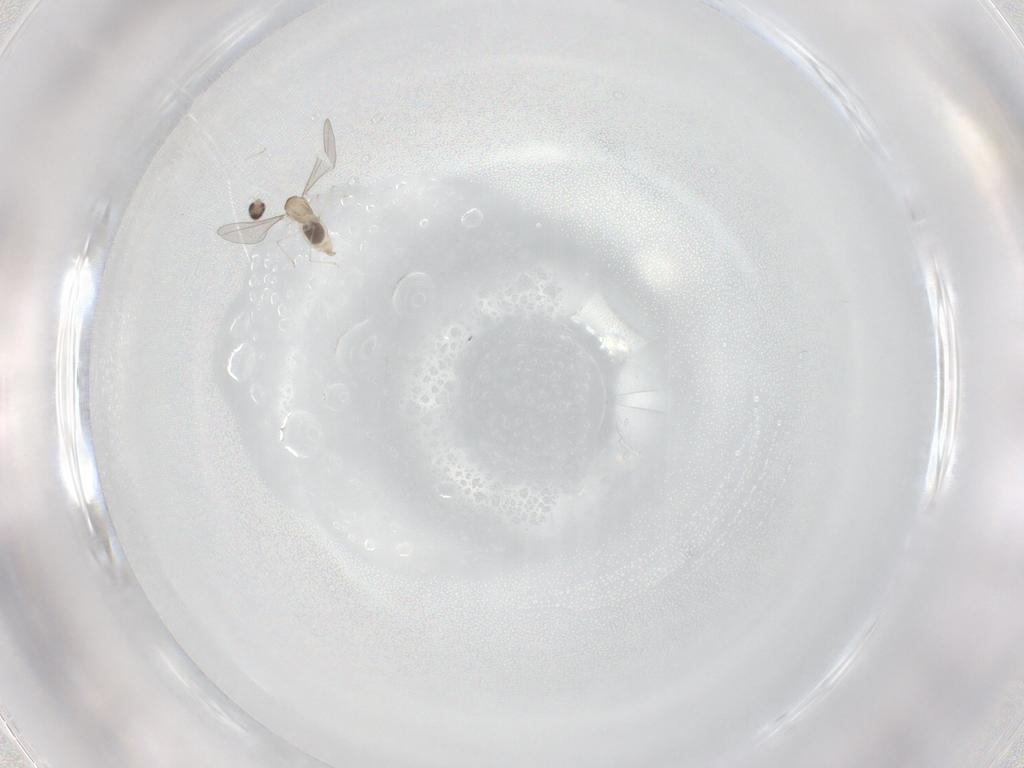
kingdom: Animalia
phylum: Arthropoda
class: Insecta
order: Diptera
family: Cecidomyiidae
